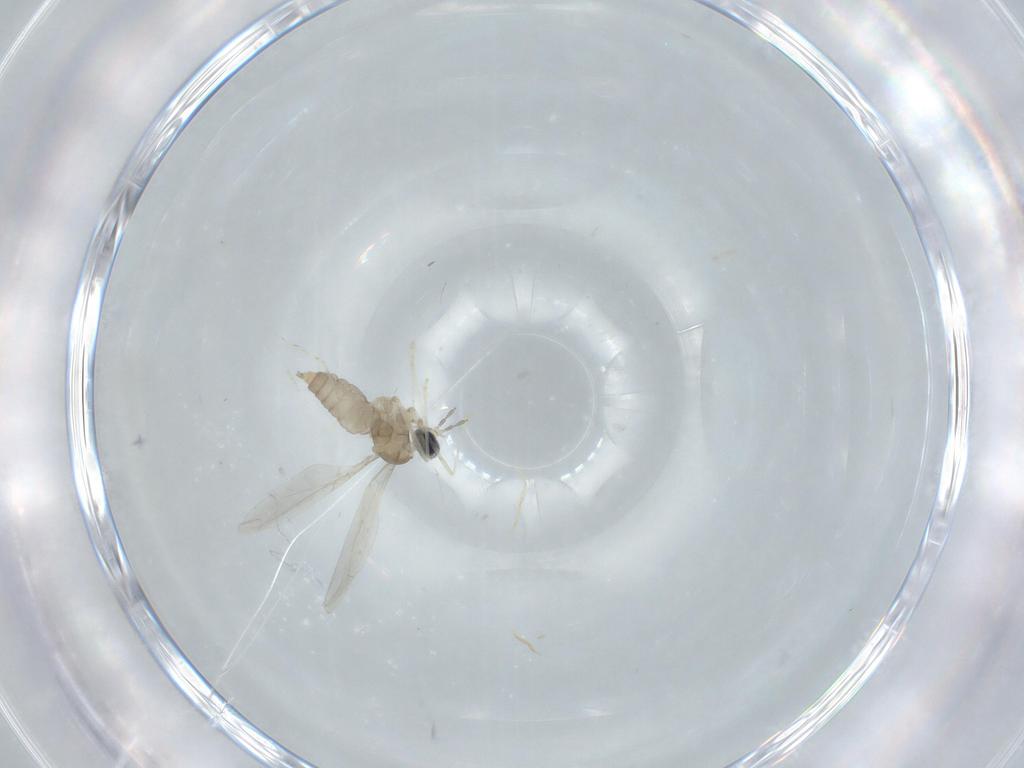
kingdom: Animalia
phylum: Arthropoda
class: Insecta
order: Diptera
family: Cecidomyiidae
